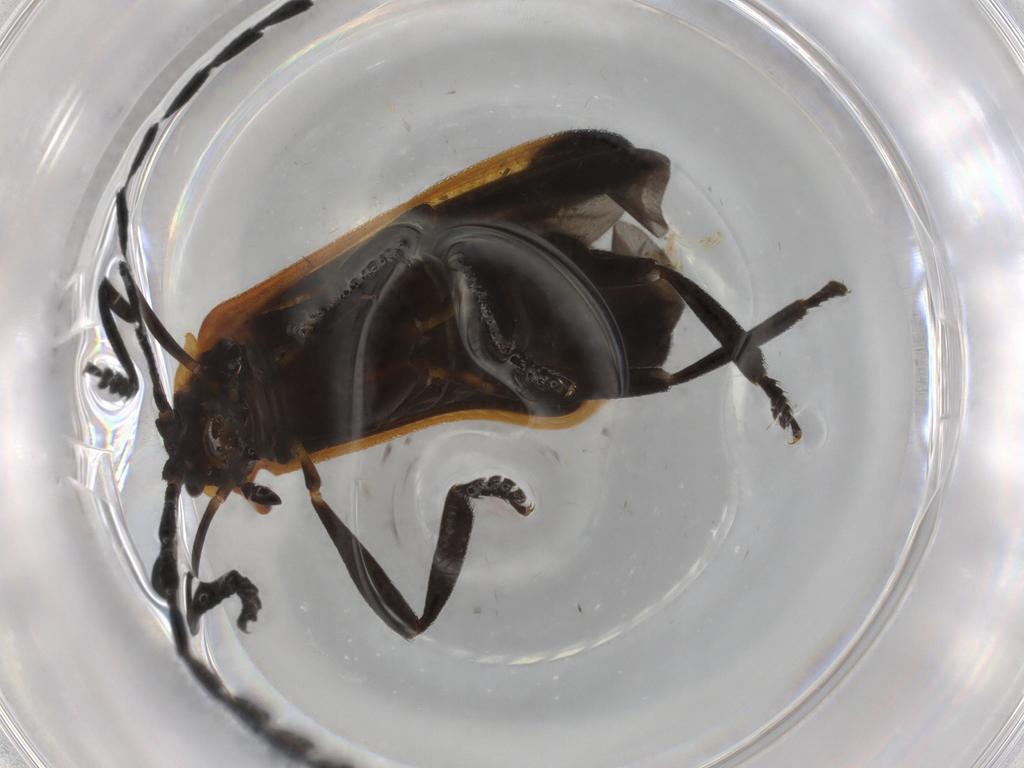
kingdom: Animalia
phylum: Arthropoda
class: Insecta
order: Coleoptera
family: Lycidae
